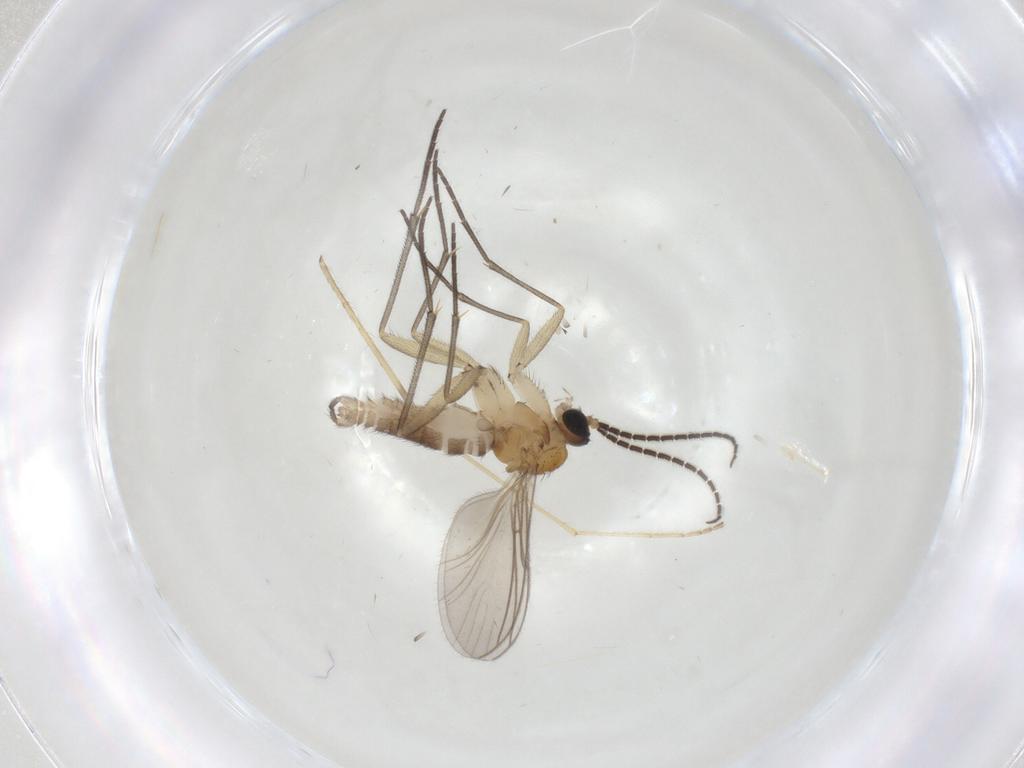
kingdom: Animalia
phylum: Arthropoda
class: Insecta
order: Diptera
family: Sciaridae
